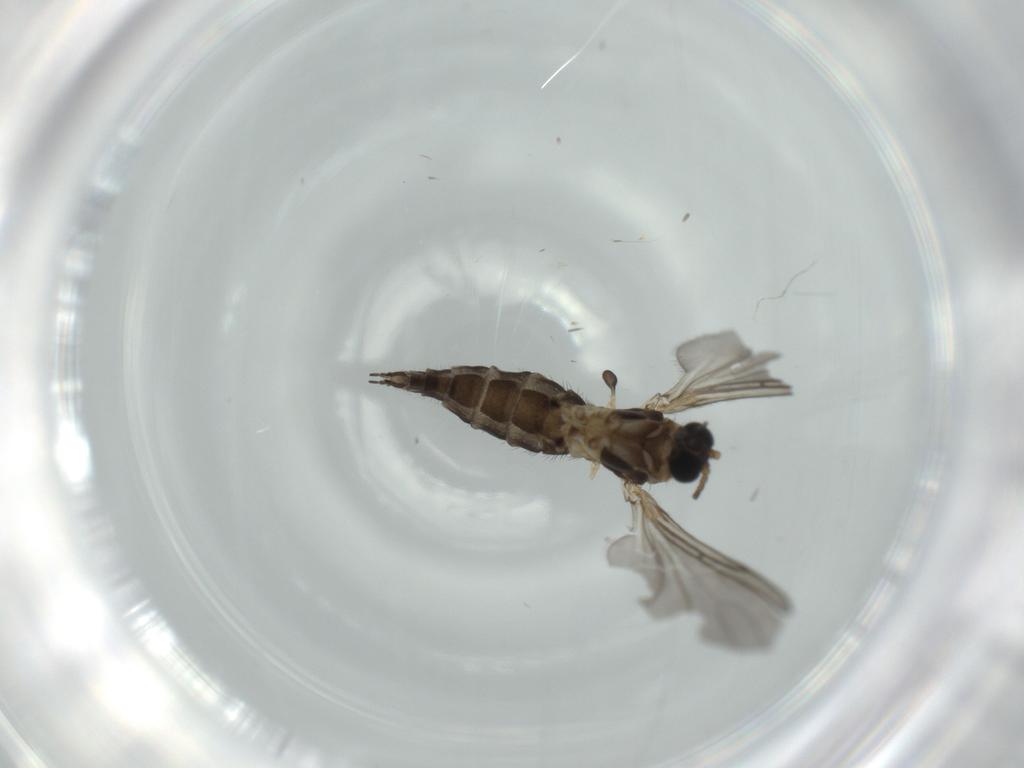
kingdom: Animalia
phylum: Arthropoda
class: Insecta
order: Diptera
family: Sciaridae
